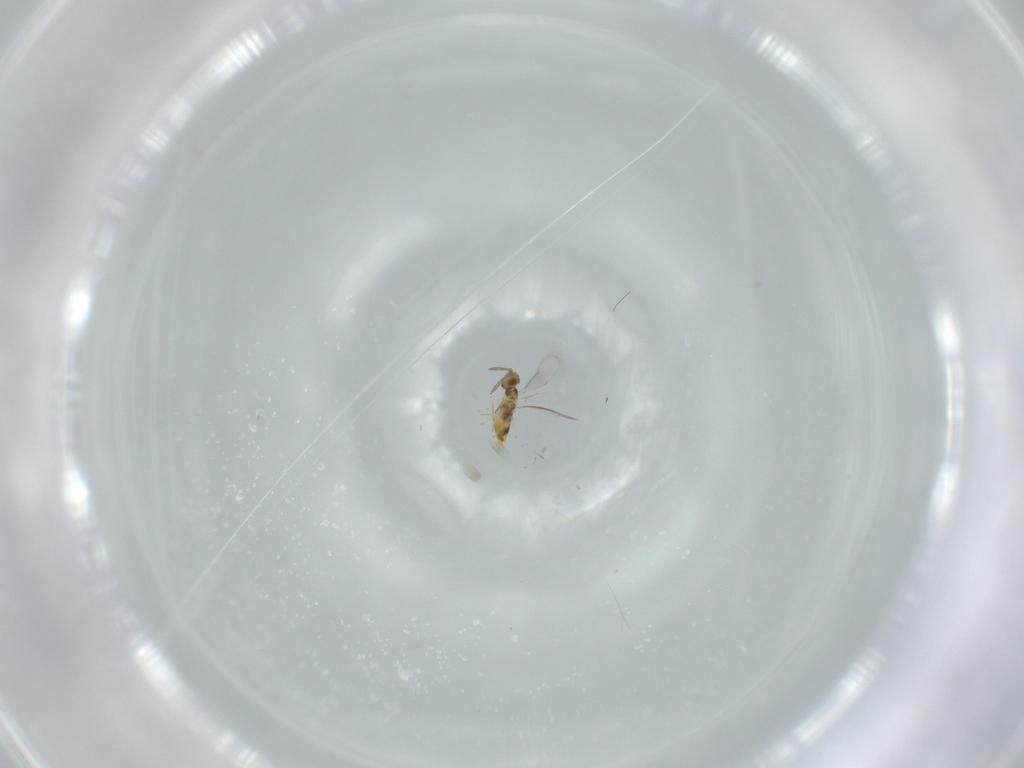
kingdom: Animalia
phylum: Arthropoda
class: Insecta
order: Hymenoptera
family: Aphelinidae
